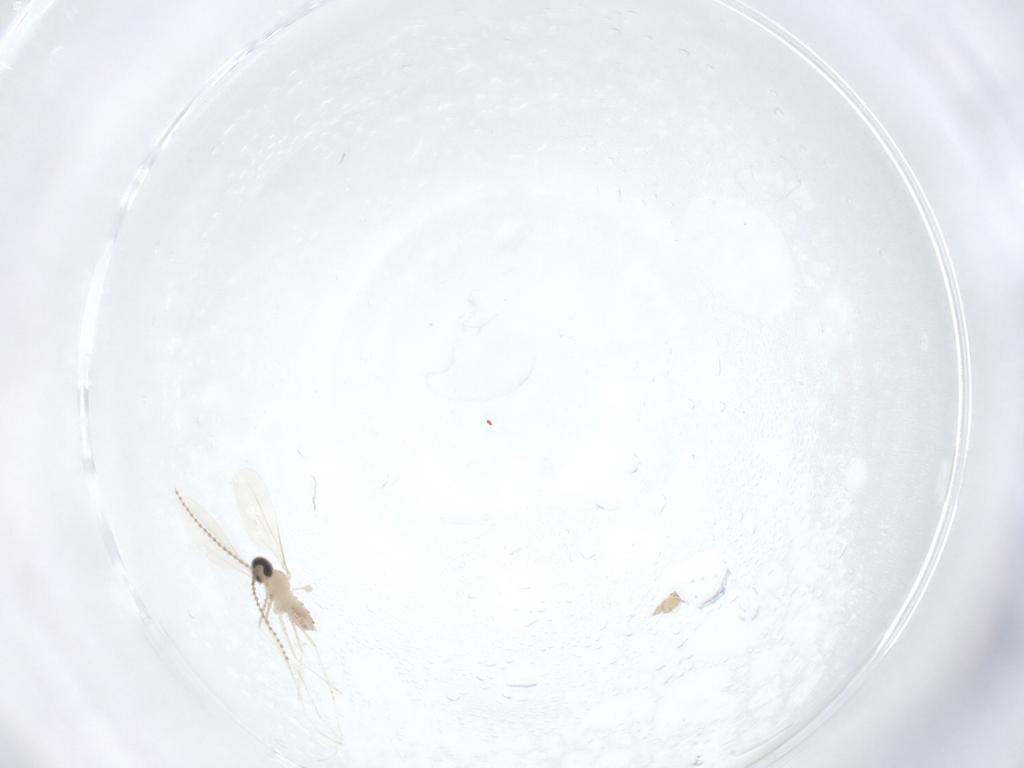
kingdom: Animalia
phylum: Arthropoda
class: Insecta
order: Diptera
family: Cecidomyiidae
